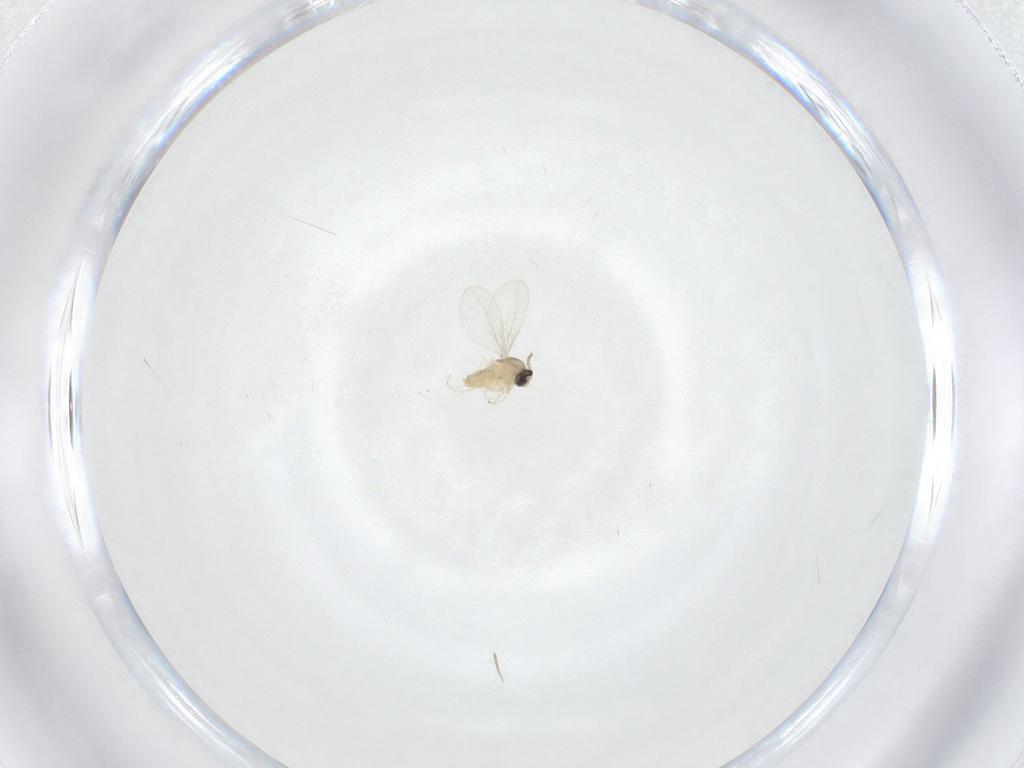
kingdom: Animalia
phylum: Arthropoda
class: Insecta
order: Diptera
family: Cecidomyiidae
